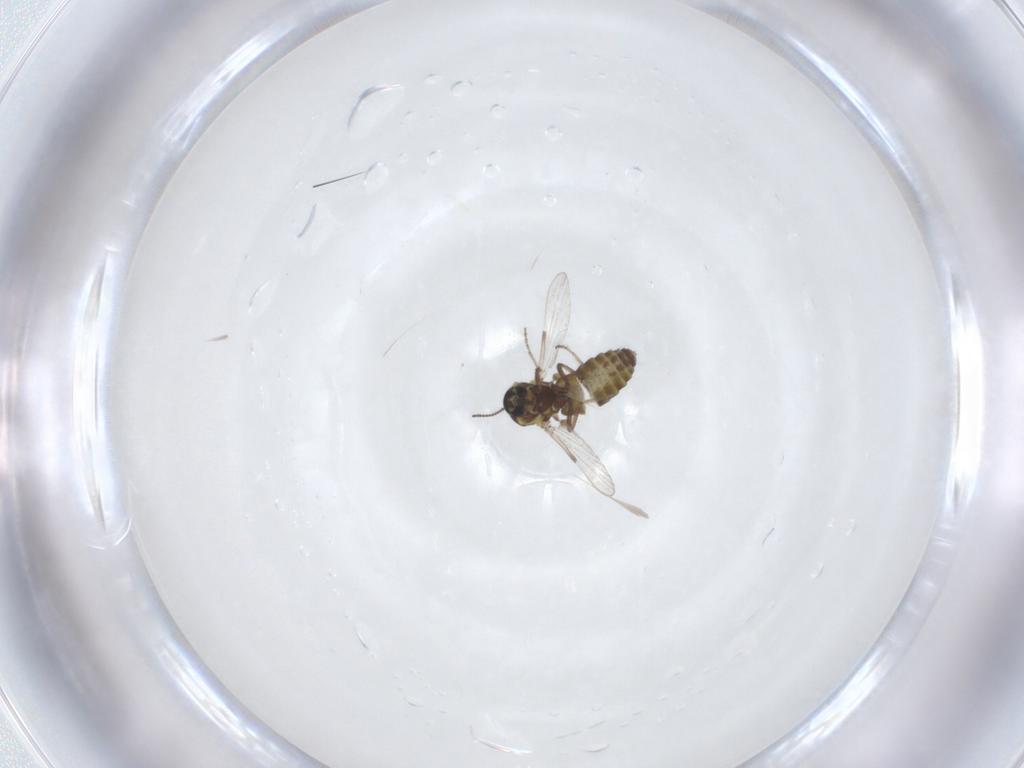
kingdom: Animalia
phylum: Arthropoda
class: Insecta
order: Diptera
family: Ceratopogonidae
